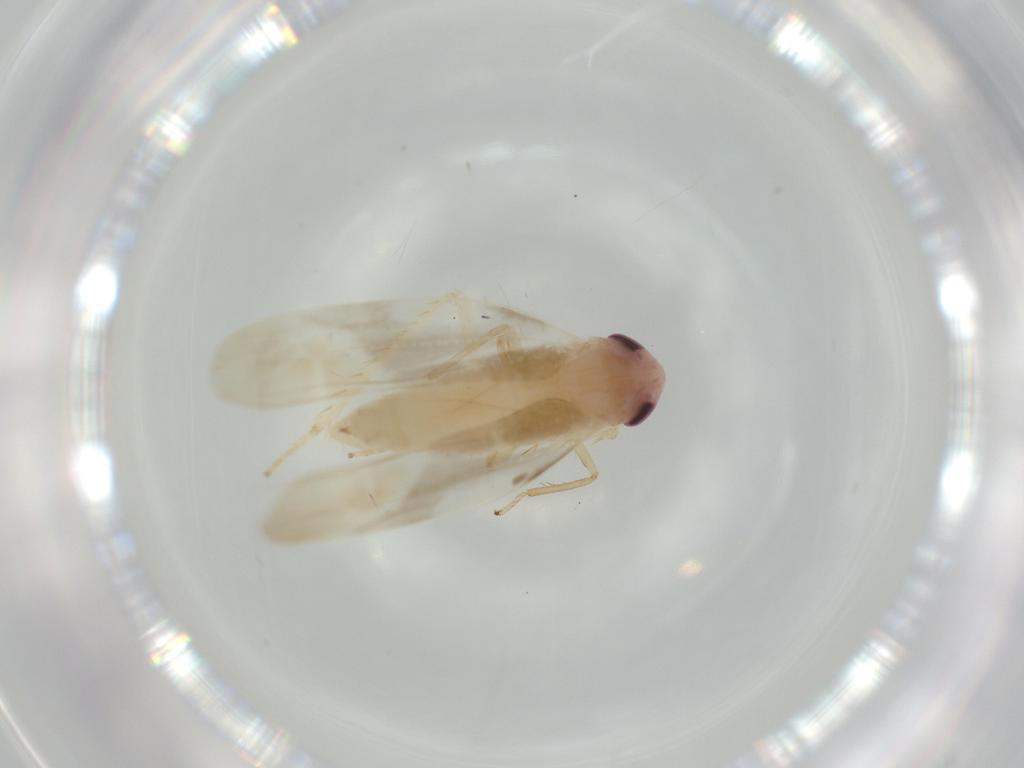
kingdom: Animalia
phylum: Arthropoda
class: Insecta
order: Hemiptera
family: Cicadellidae
